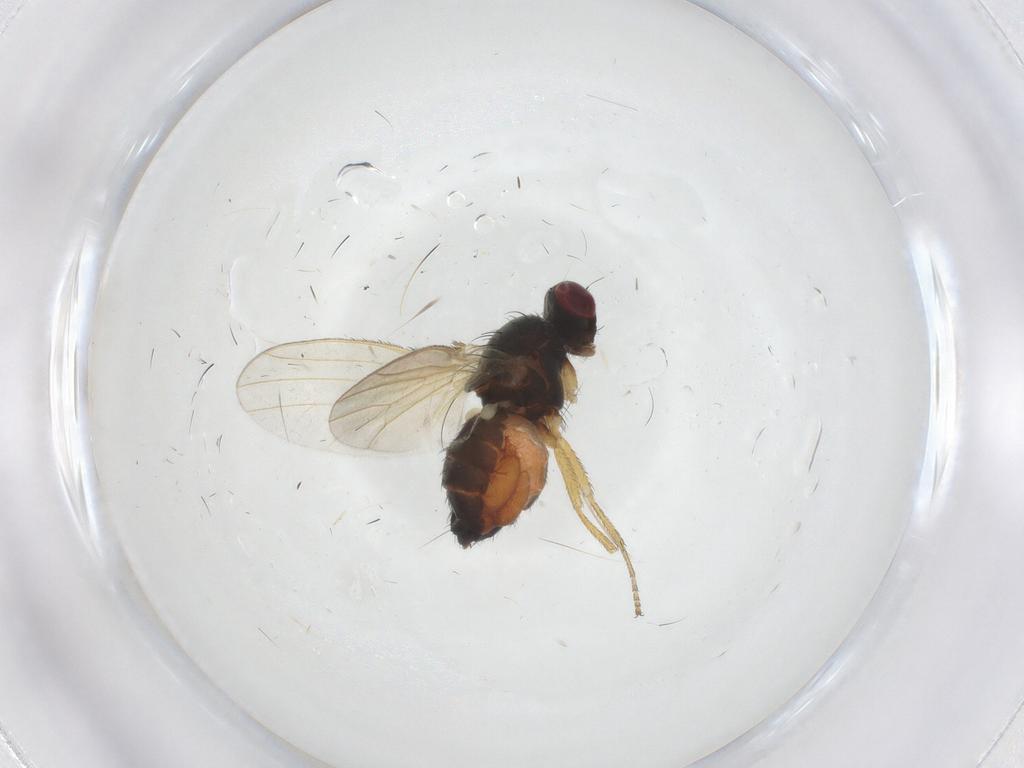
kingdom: Animalia
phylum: Arthropoda
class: Insecta
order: Diptera
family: Heleomyzidae
